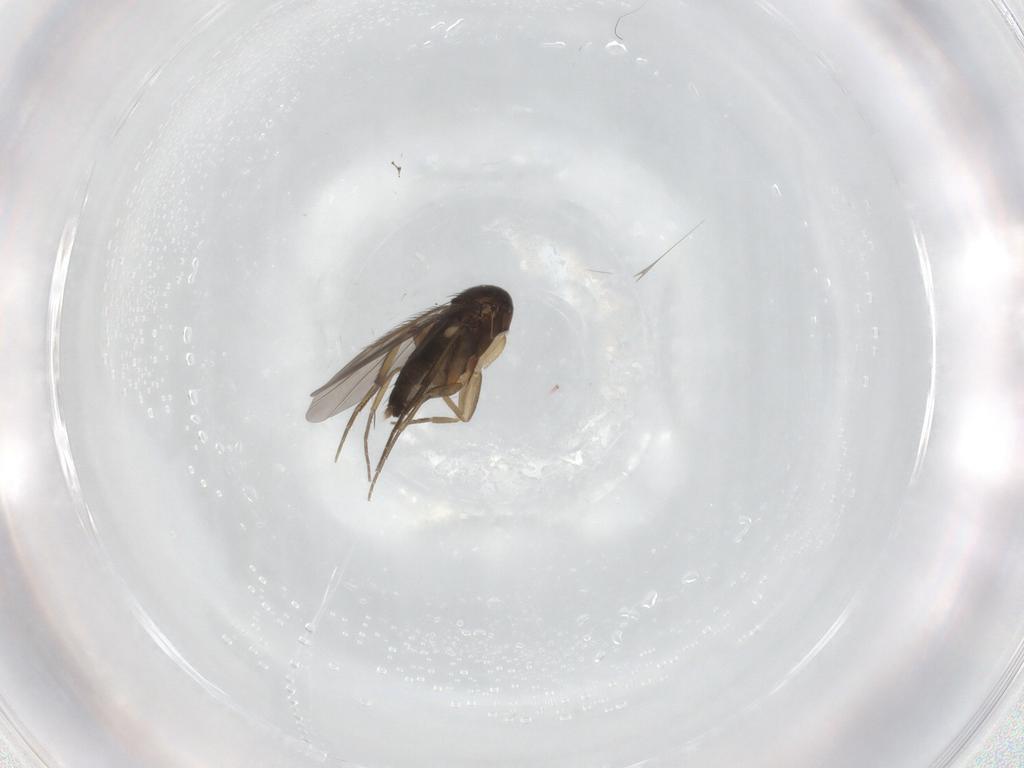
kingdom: Animalia
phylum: Arthropoda
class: Insecta
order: Diptera
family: Phoridae
